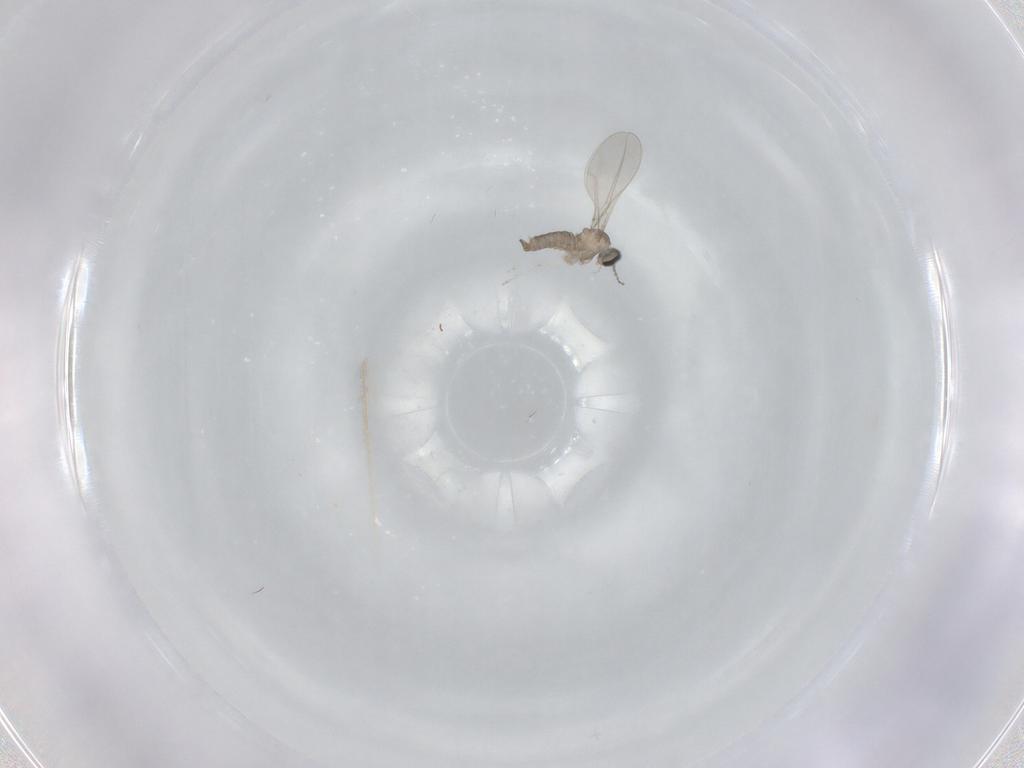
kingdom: Animalia
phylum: Arthropoda
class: Insecta
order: Diptera
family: Cecidomyiidae
